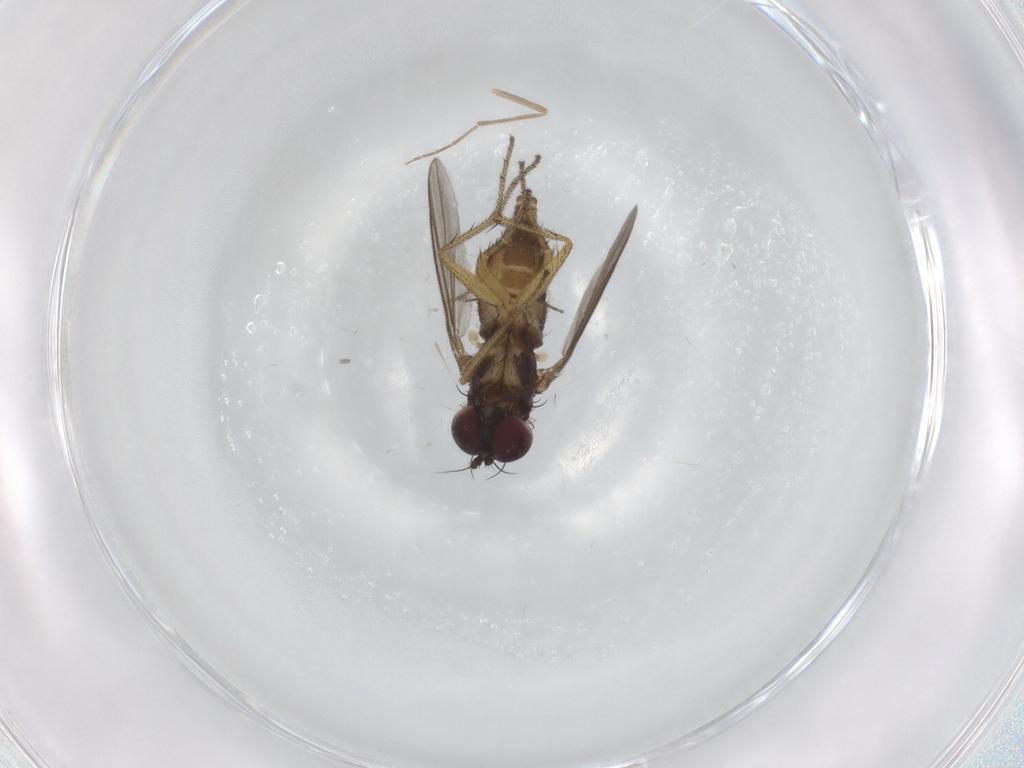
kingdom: Animalia
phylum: Arthropoda
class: Insecta
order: Diptera
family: Chironomidae
